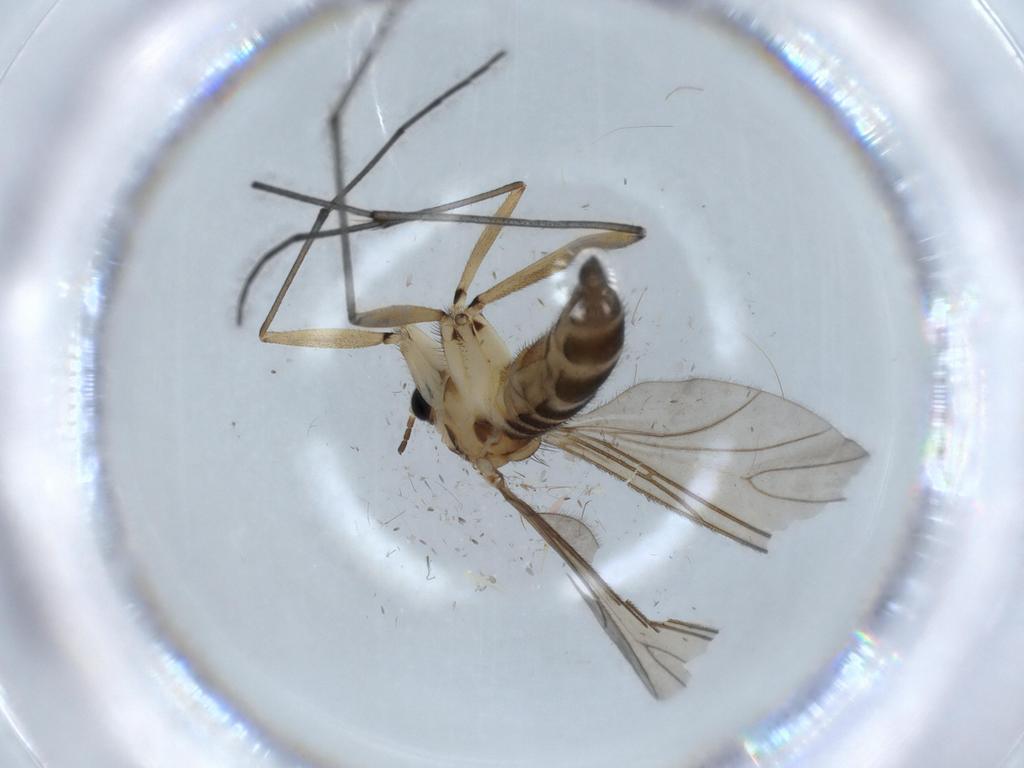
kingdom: Animalia
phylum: Arthropoda
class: Insecta
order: Diptera
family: Sciaridae
